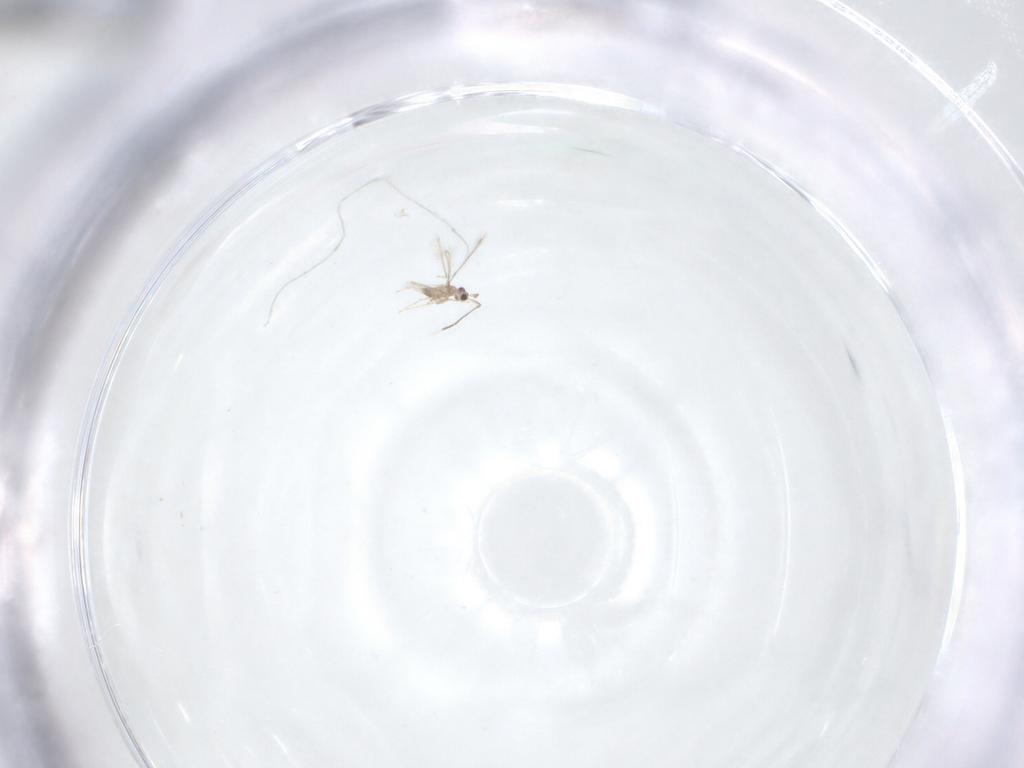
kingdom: Animalia
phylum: Arthropoda
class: Insecta
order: Hymenoptera
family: Mymaridae
